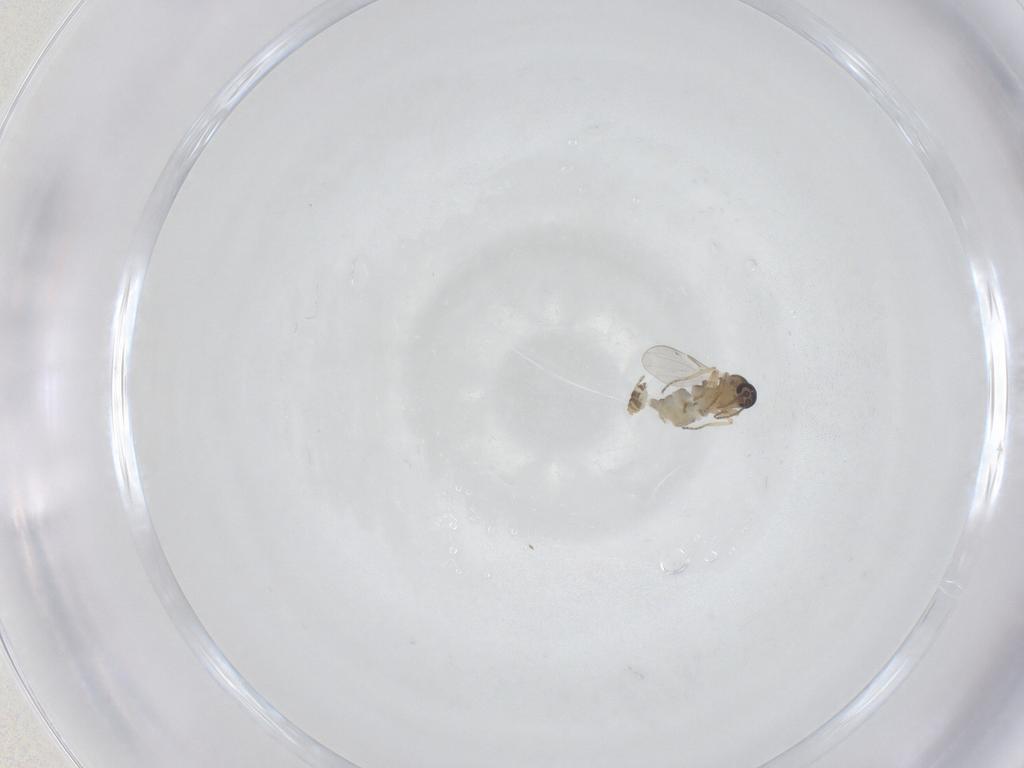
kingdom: Animalia
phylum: Arthropoda
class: Insecta
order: Diptera
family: Ceratopogonidae
